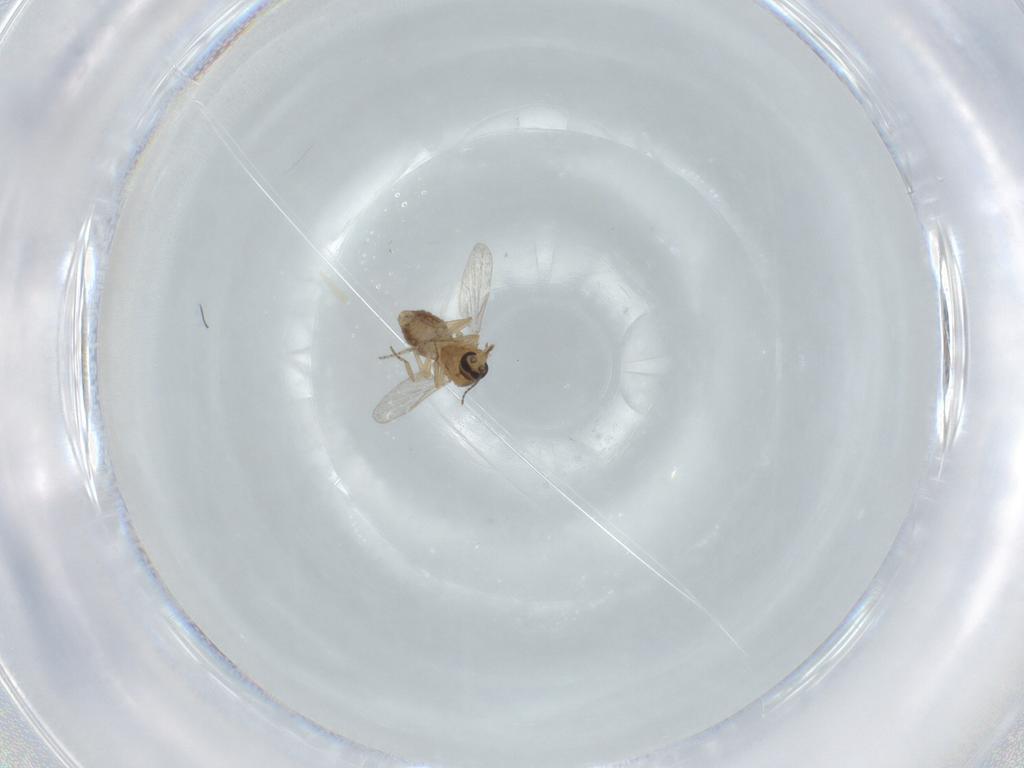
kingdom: Animalia
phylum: Arthropoda
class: Insecta
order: Diptera
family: Ceratopogonidae
